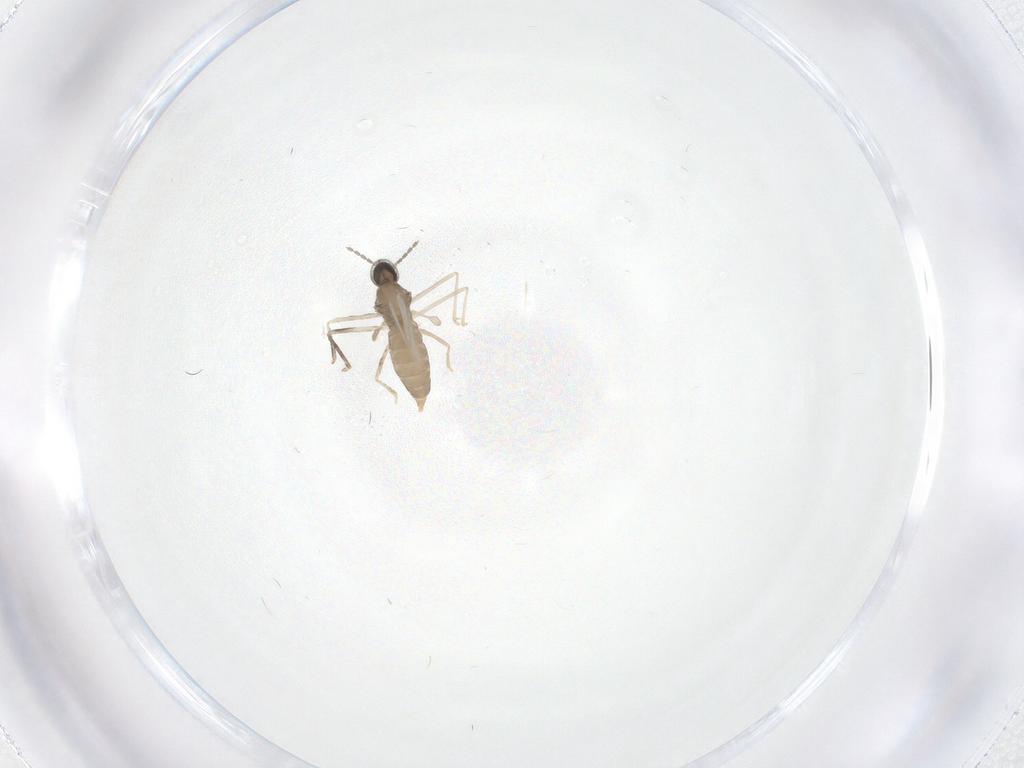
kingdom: Animalia
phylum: Arthropoda
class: Insecta
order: Diptera
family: Cecidomyiidae
